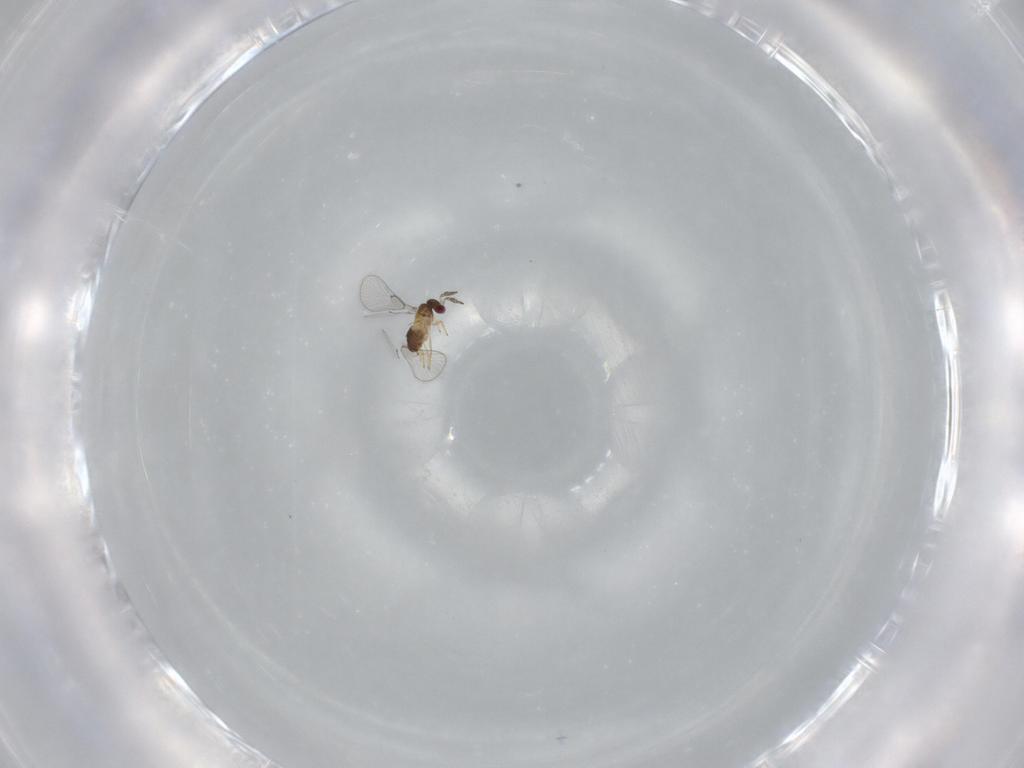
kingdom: Animalia
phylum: Arthropoda
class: Insecta
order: Hymenoptera
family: Trichogrammatidae
